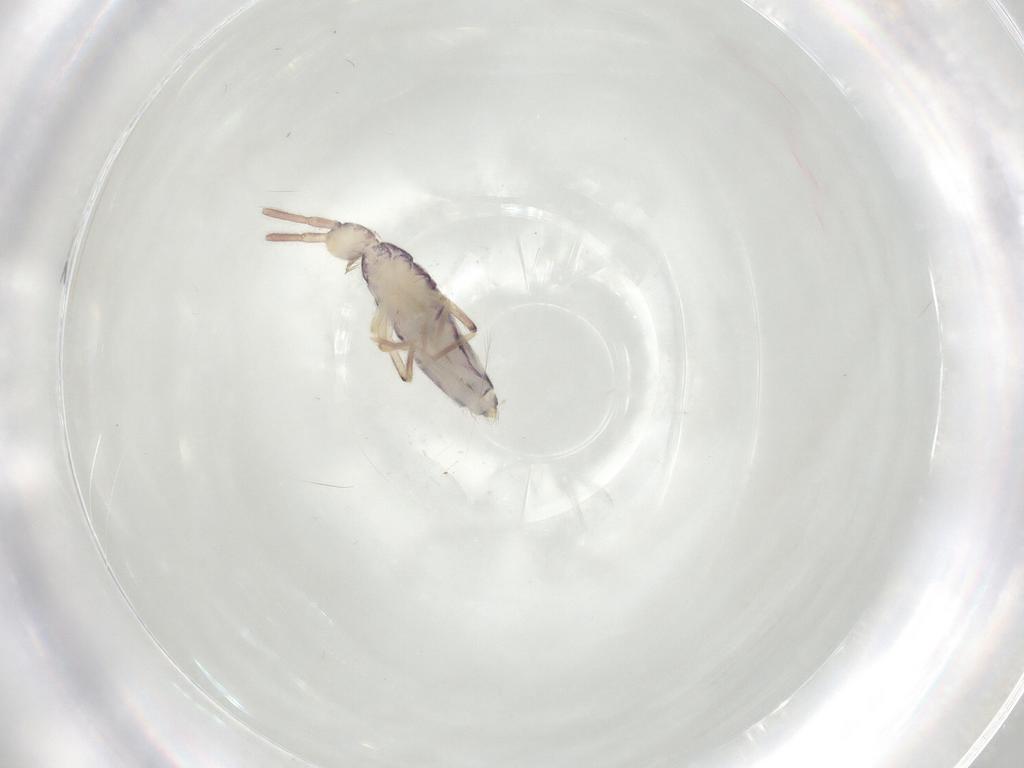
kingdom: Animalia
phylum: Arthropoda
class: Collembola
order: Entomobryomorpha
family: Entomobryidae
